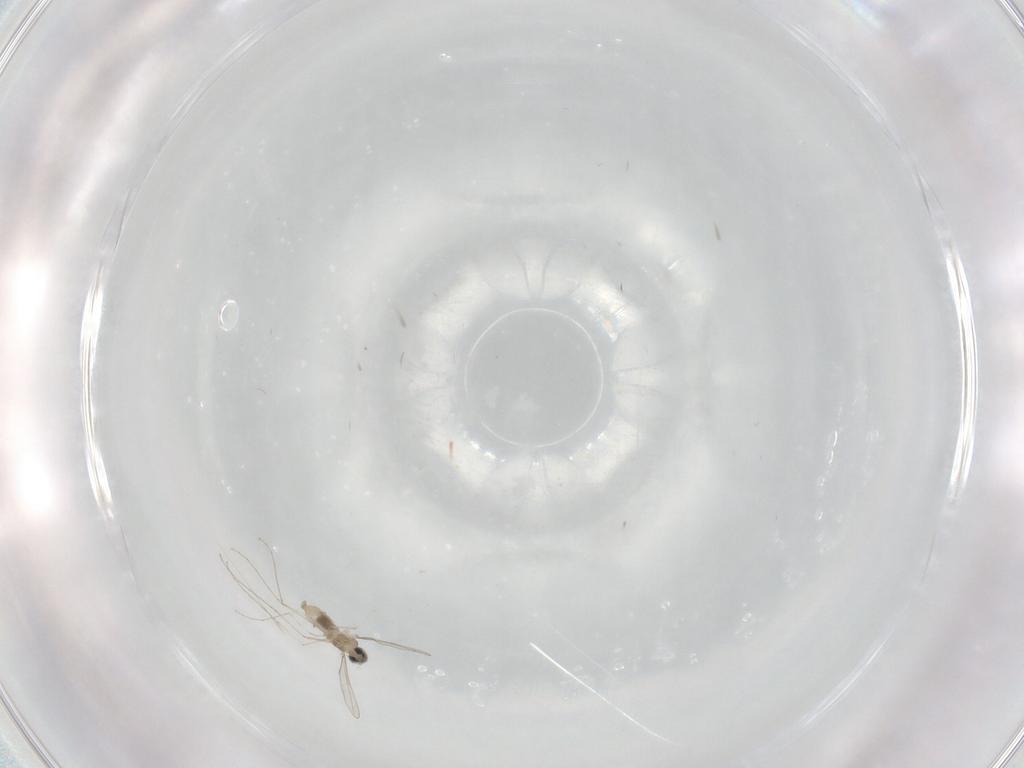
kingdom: Animalia
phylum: Arthropoda
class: Insecta
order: Diptera
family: Cecidomyiidae
